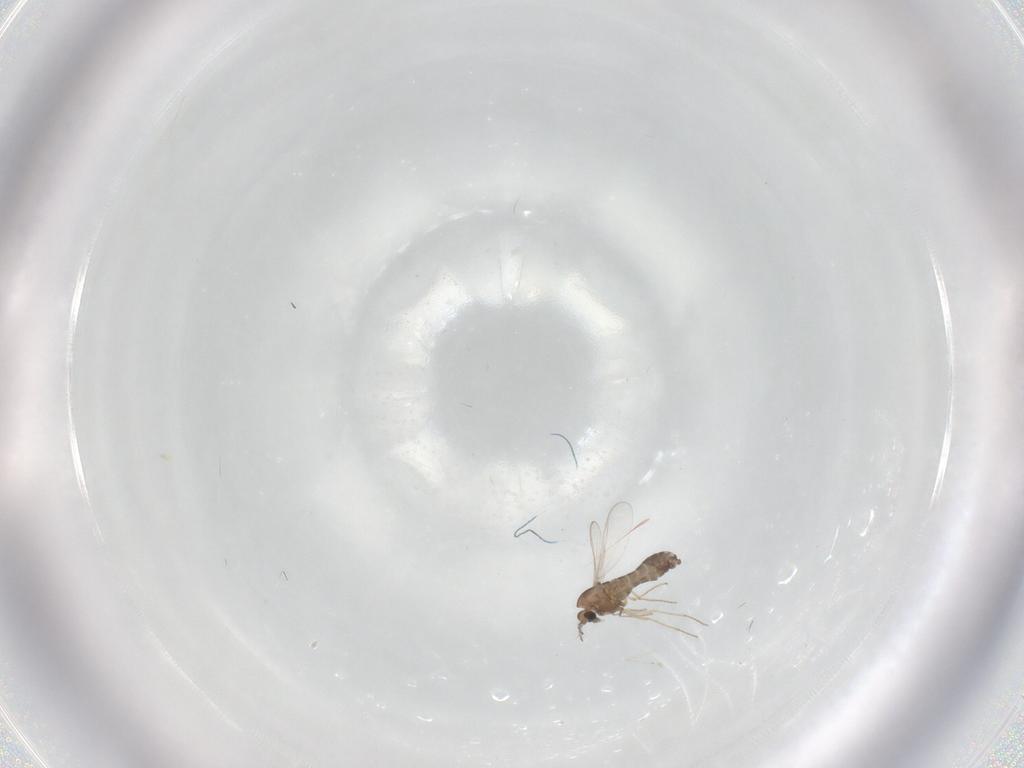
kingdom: Animalia
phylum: Arthropoda
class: Insecta
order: Diptera
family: Chironomidae
